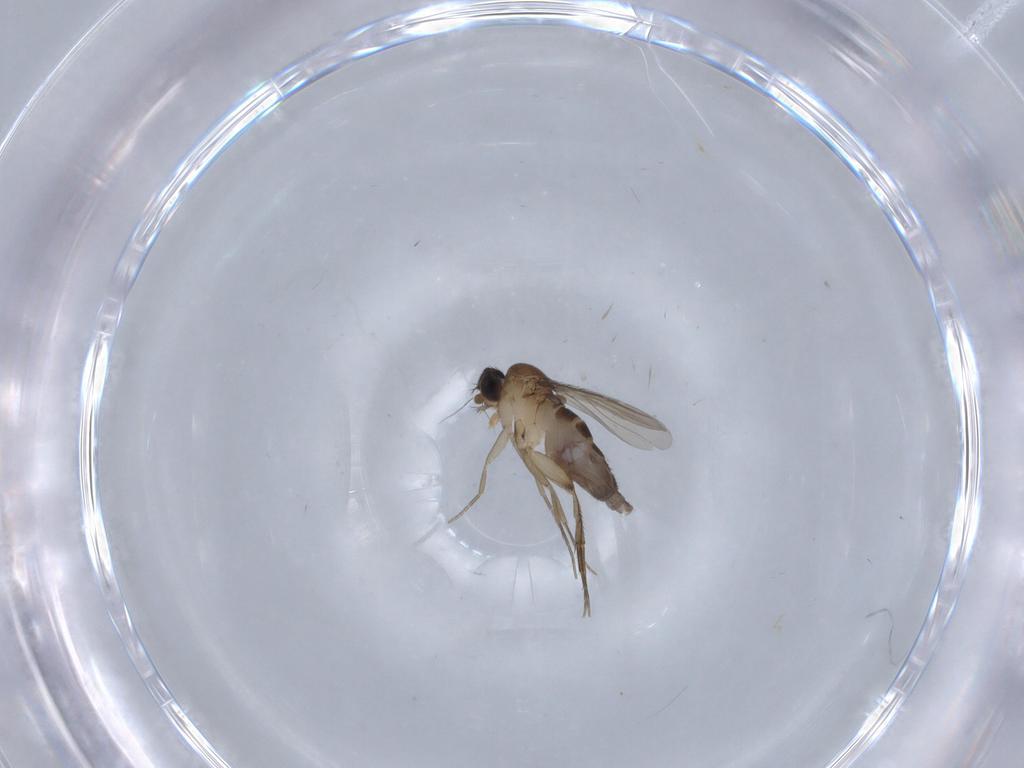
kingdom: Animalia
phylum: Arthropoda
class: Insecta
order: Diptera
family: Phoridae
